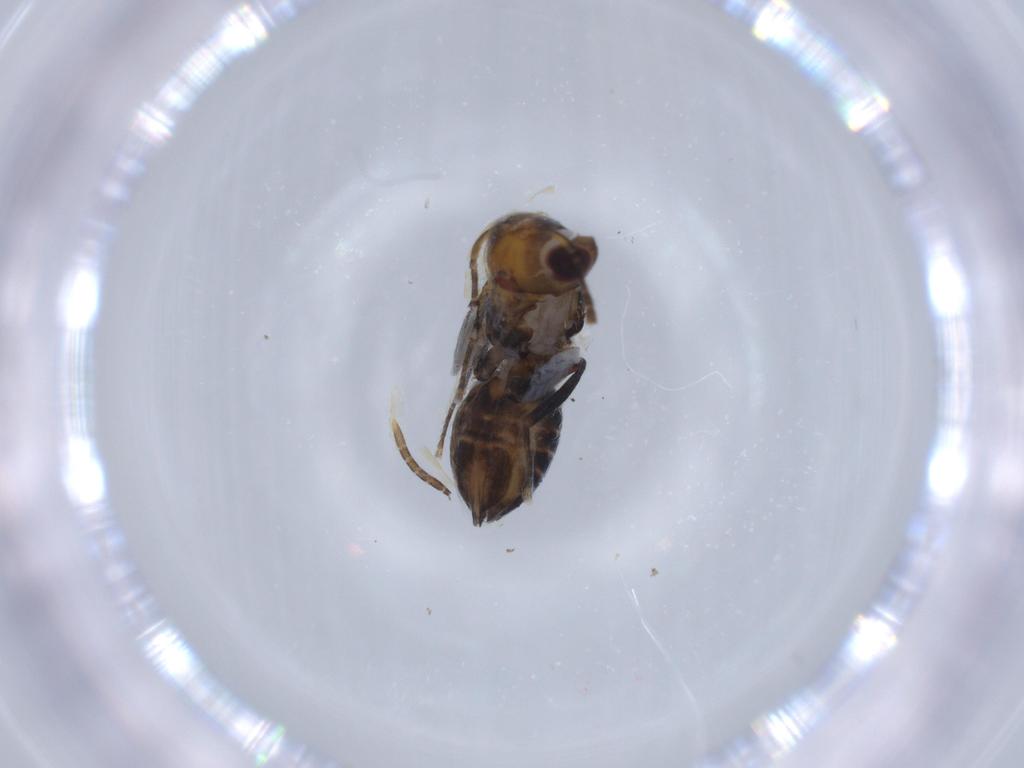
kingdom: Animalia
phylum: Arthropoda
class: Insecta
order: Hymenoptera
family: Encyrtidae
